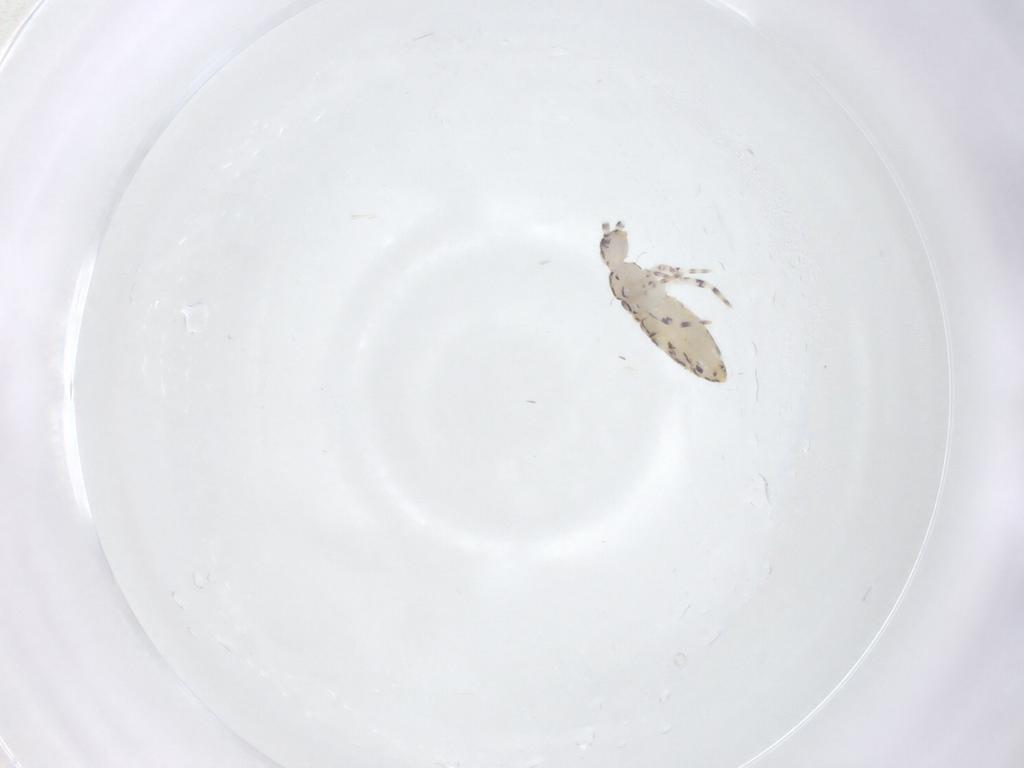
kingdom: Animalia
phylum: Arthropoda
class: Collembola
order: Entomobryomorpha
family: Entomobryidae
